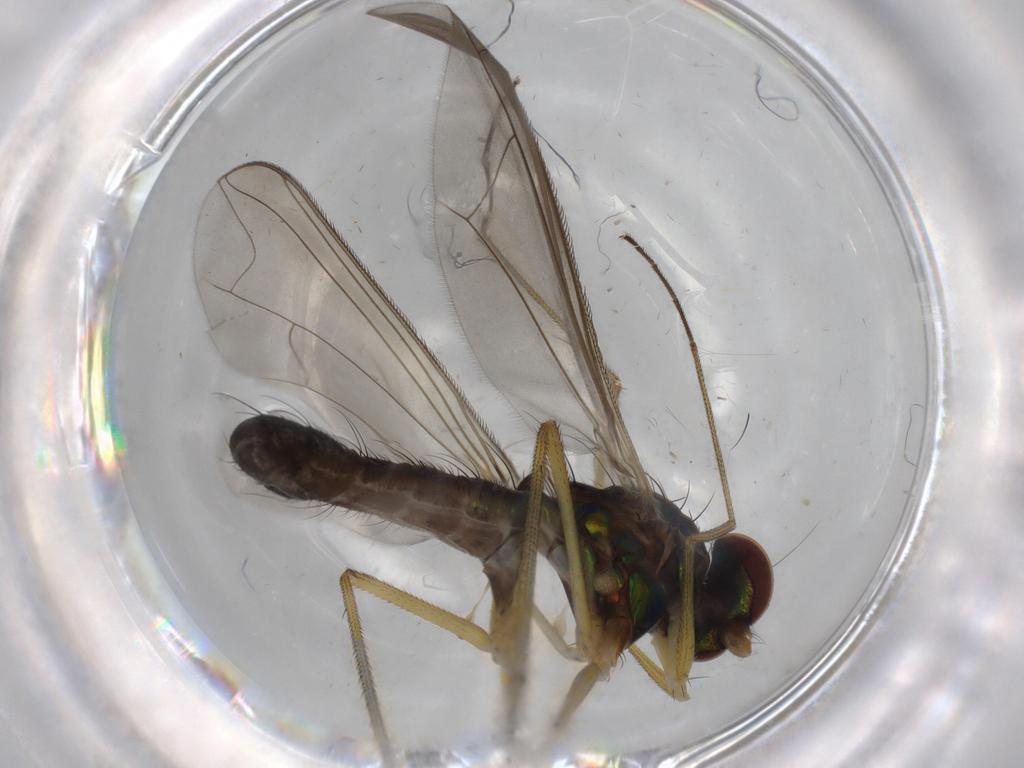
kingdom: Animalia
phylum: Arthropoda
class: Insecta
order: Diptera
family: Dolichopodidae
